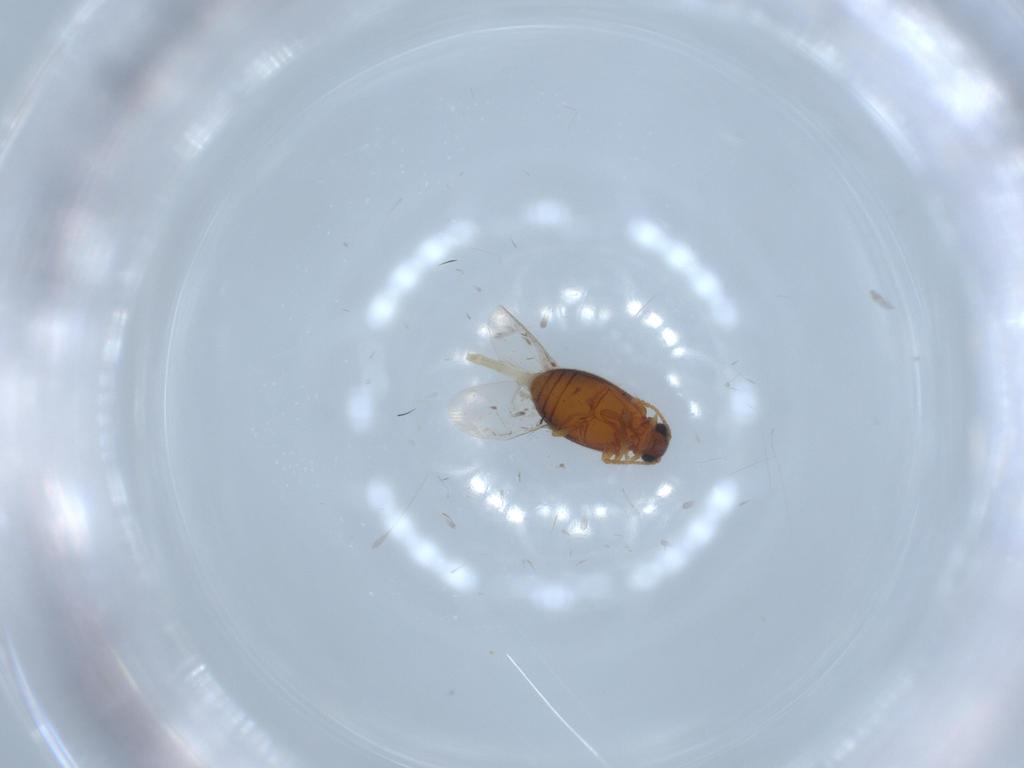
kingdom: Animalia
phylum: Arthropoda
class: Insecta
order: Coleoptera
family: Aderidae
